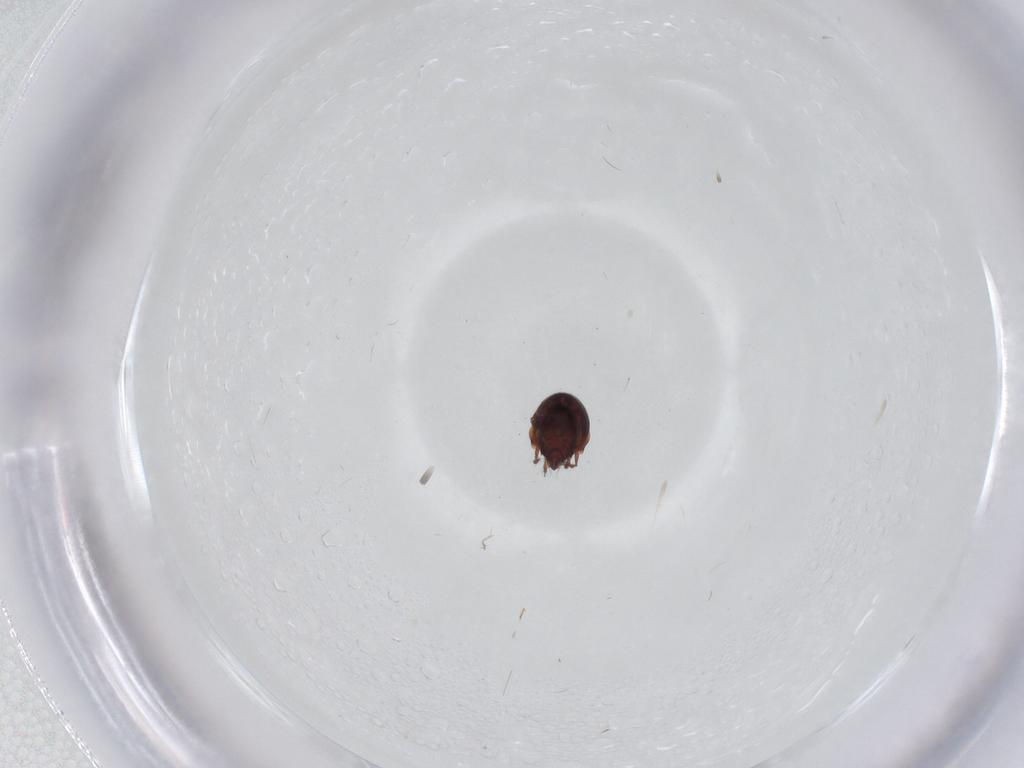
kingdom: Animalia
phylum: Arthropoda
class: Arachnida
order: Sarcoptiformes
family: Ceratozetidae
